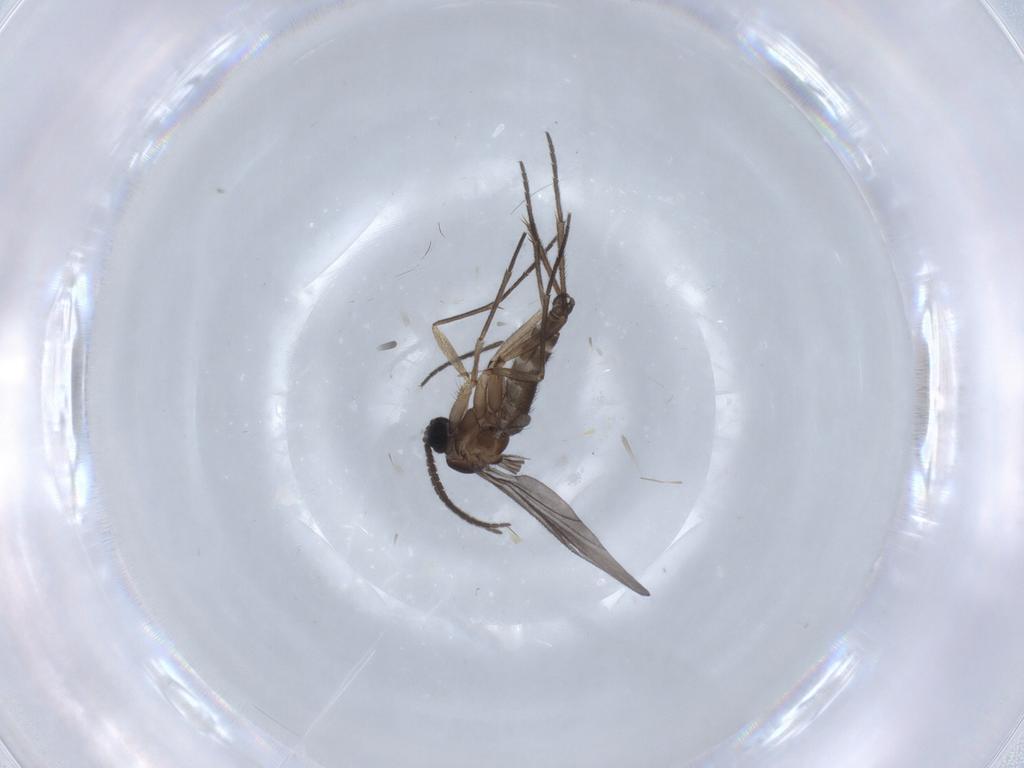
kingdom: Animalia
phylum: Arthropoda
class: Insecta
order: Diptera
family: Sciaridae
